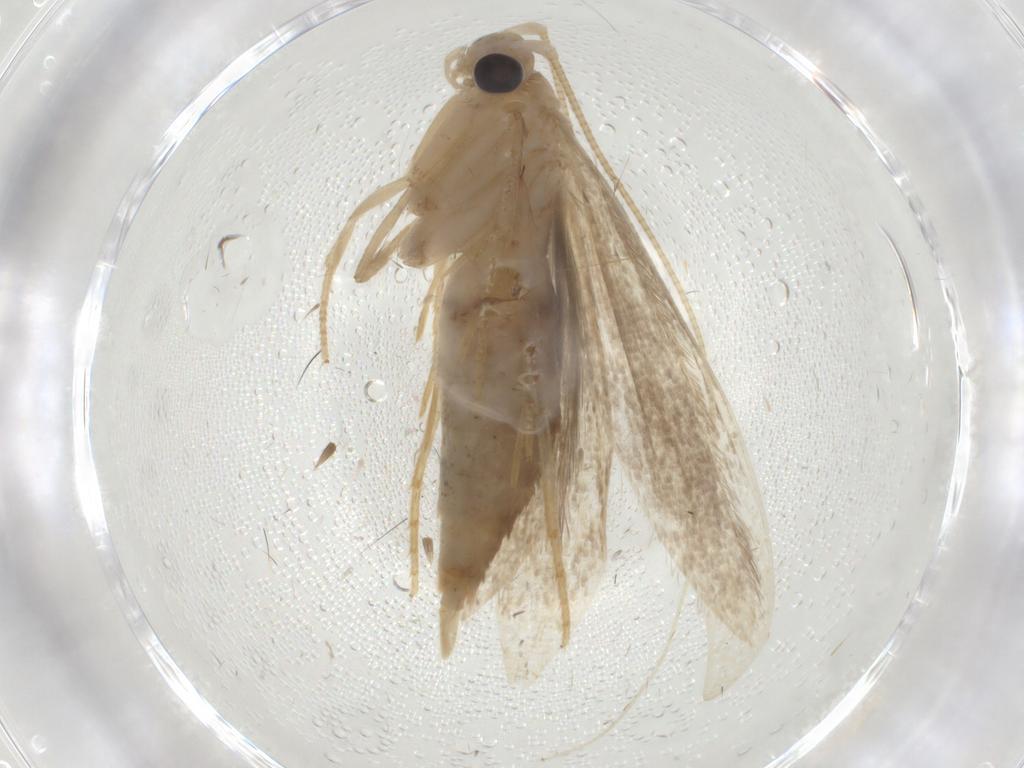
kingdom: Animalia
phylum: Arthropoda
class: Insecta
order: Lepidoptera
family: Nepticulidae
